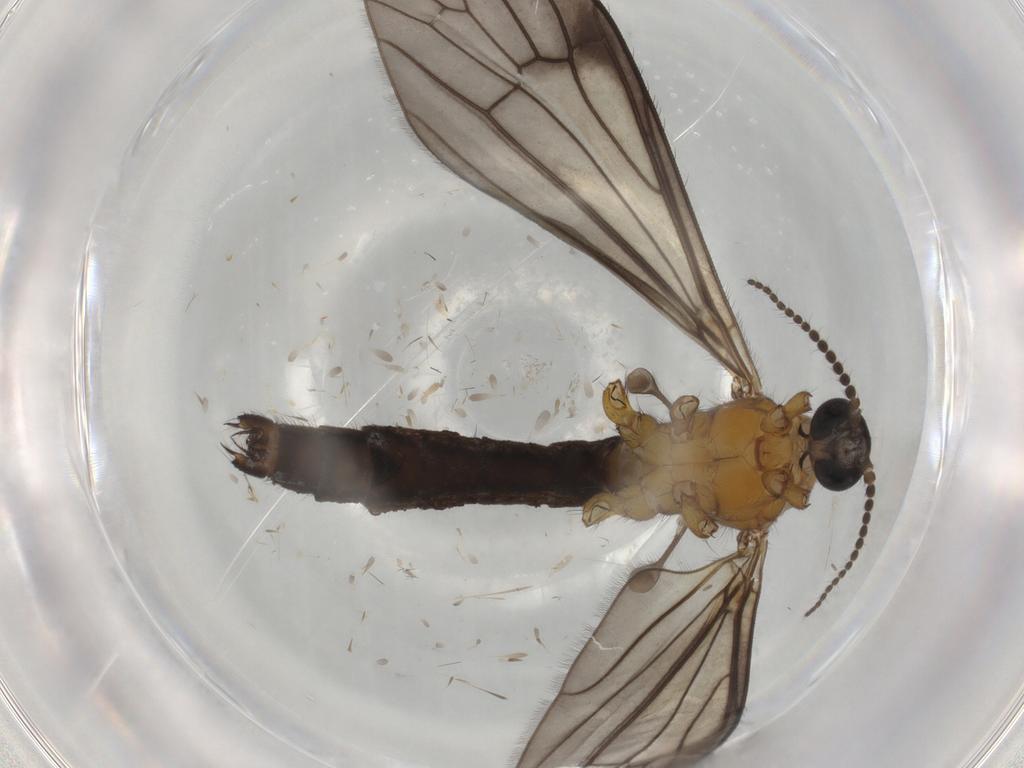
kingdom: Animalia
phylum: Arthropoda
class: Insecta
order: Diptera
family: Limoniidae
